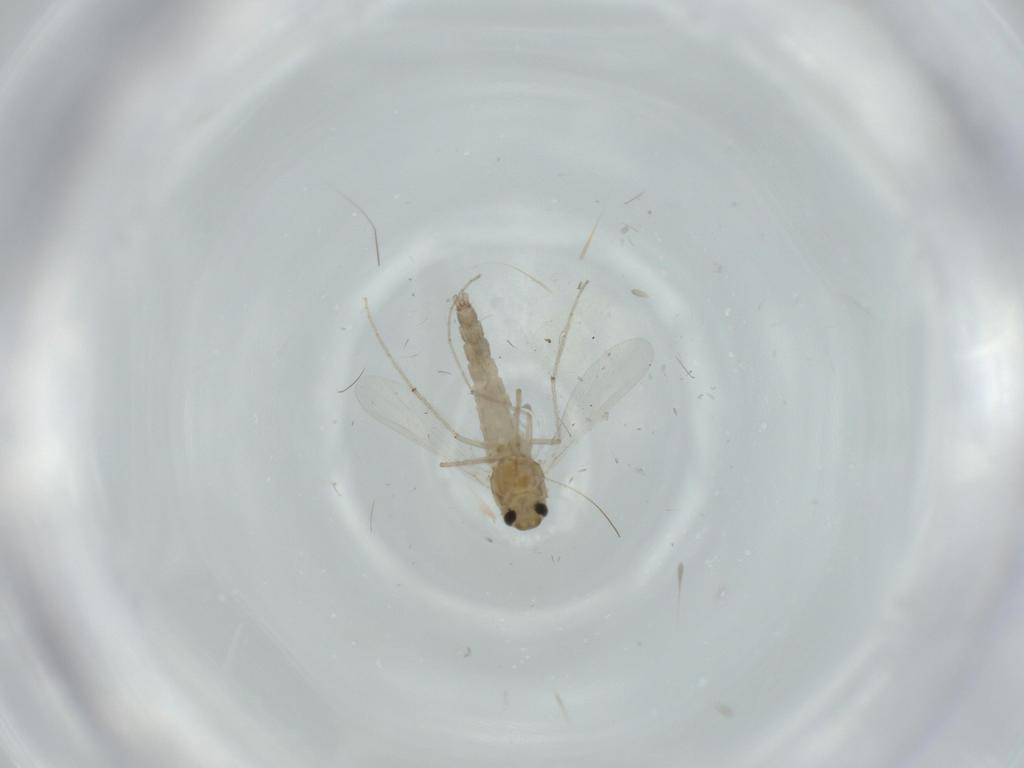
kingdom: Animalia
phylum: Arthropoda
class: Insecta
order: Diptera
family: Chironomidae
